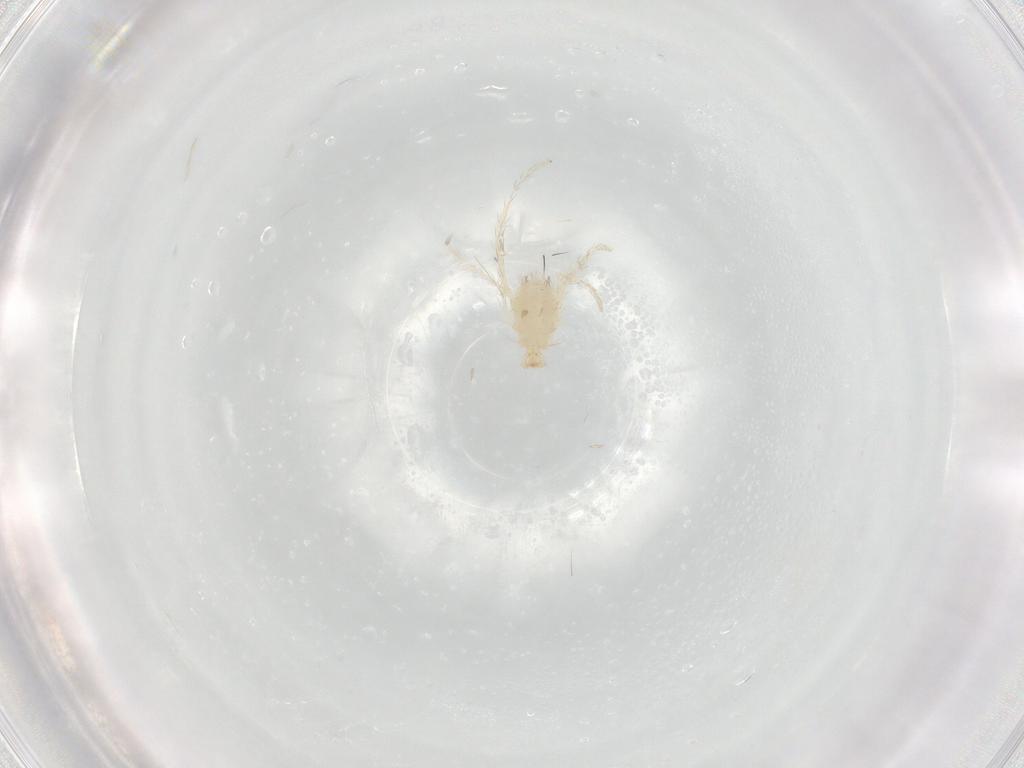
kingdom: Animalia
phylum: Arthropoda
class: Arachnida
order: Trombidiformes
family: Erythraeidae
